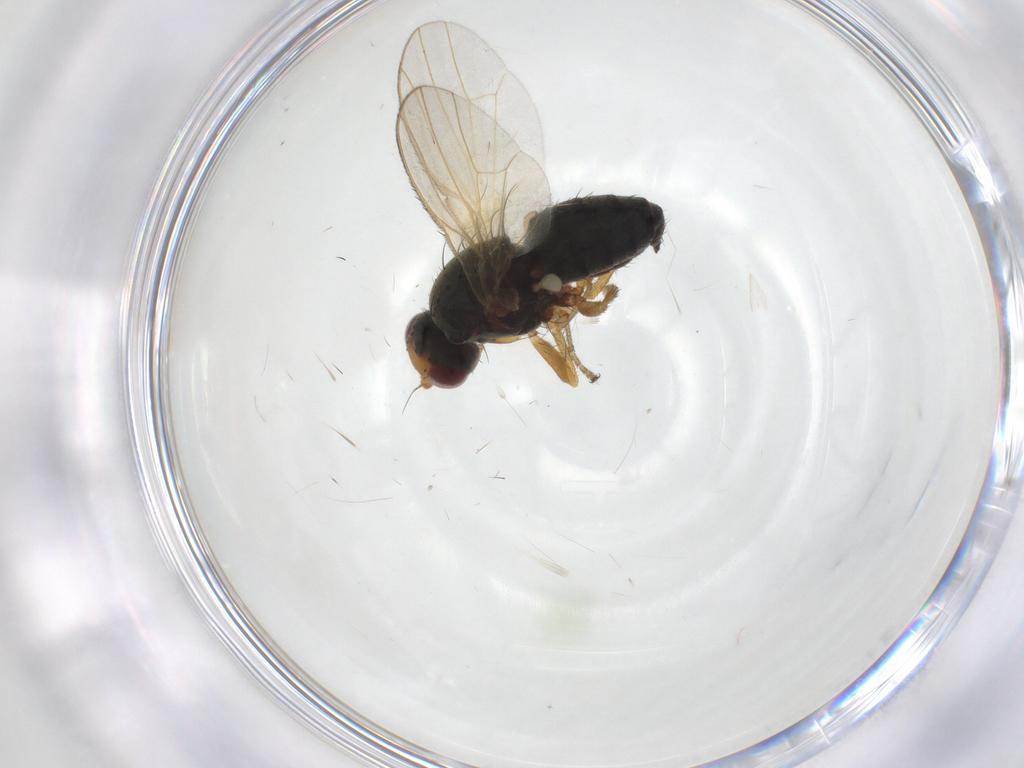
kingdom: Animalia
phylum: Arthropoda
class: Insecta
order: Diptera
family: Heleomyzidae
